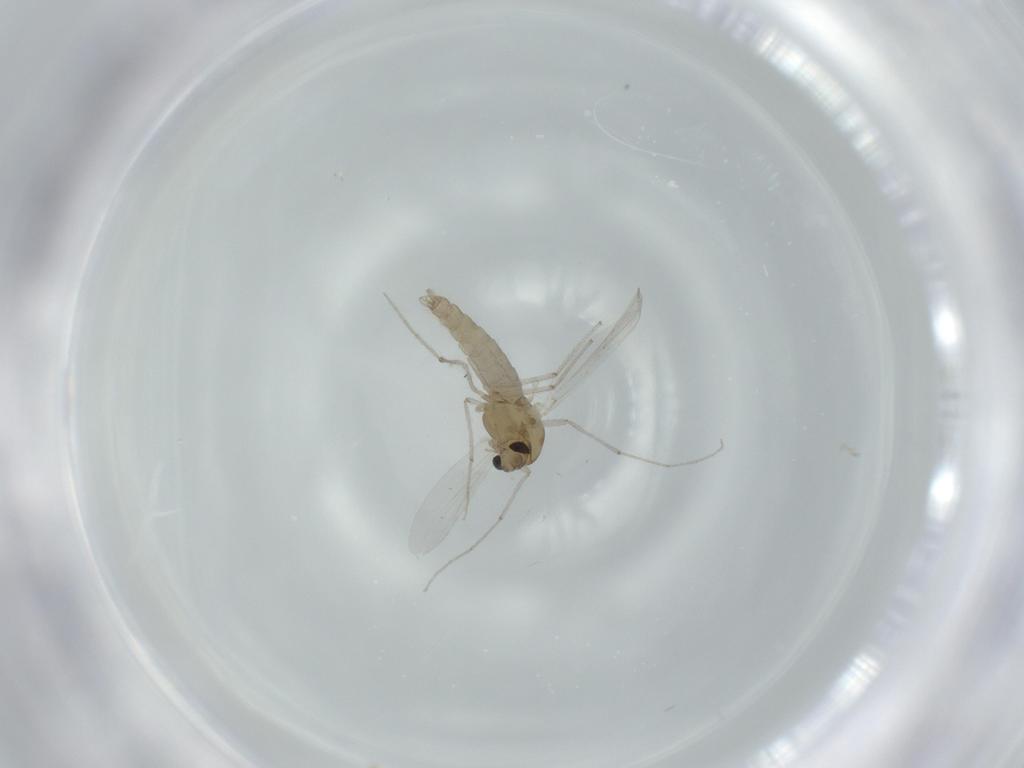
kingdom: Animalia
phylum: Arthropoda
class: Insecta
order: Diptera
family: Chironomidae
